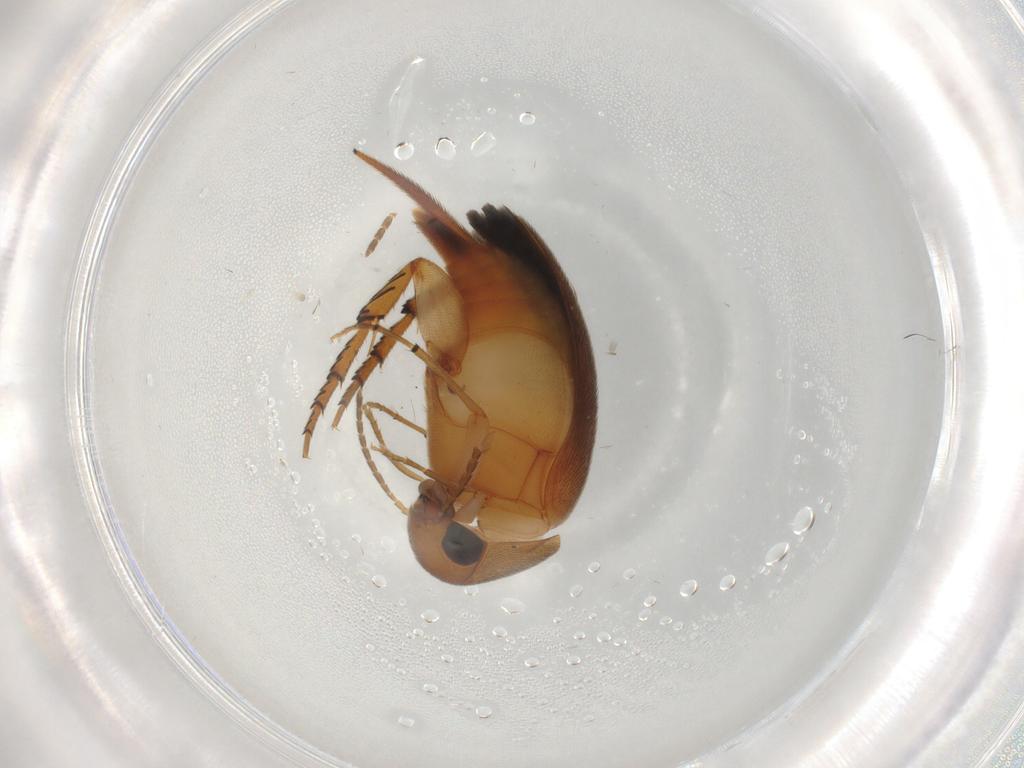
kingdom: Animalia
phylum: Arthropoda
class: Insecta
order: Coleoptera
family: Mordellidae
